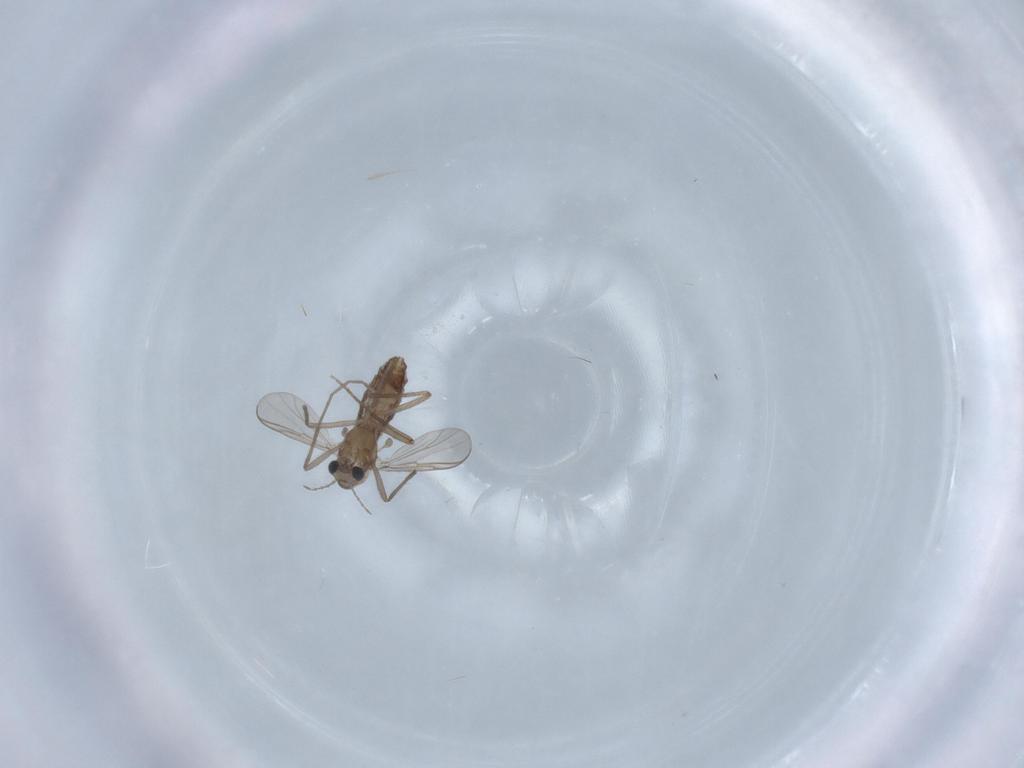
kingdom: Animalia
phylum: Arthropoda
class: Insecta
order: Diptera
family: Chironomidae
